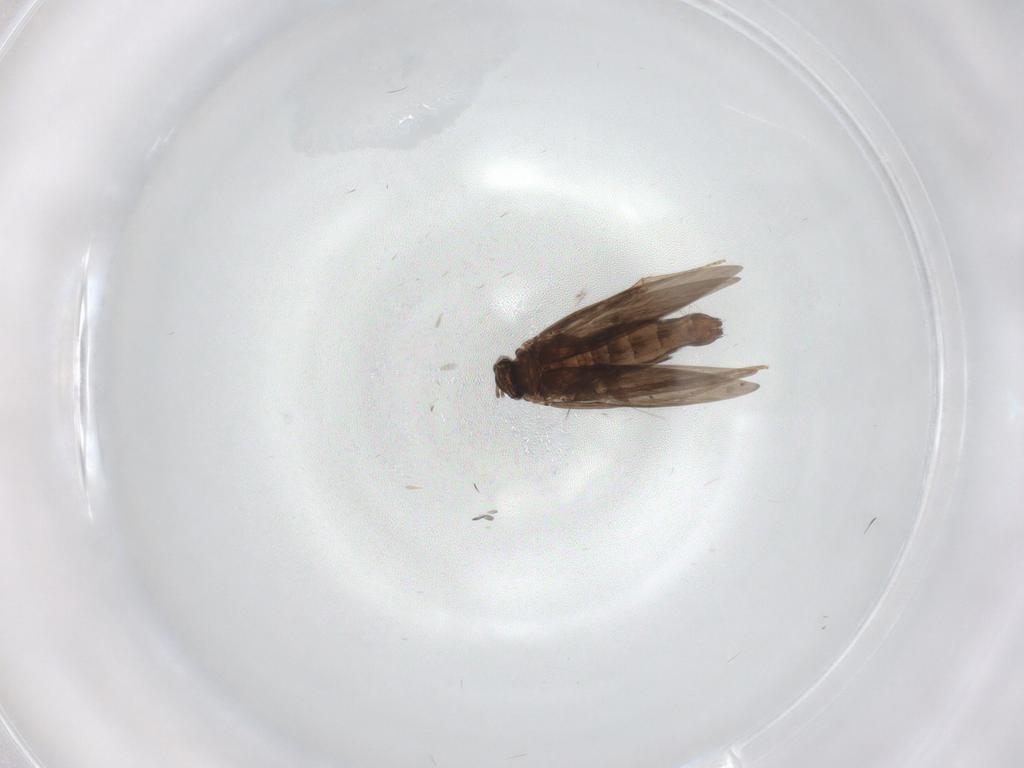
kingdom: Animalia
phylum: Arthropoda
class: Insecta
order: Trichoptera
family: Hydroptilidae
